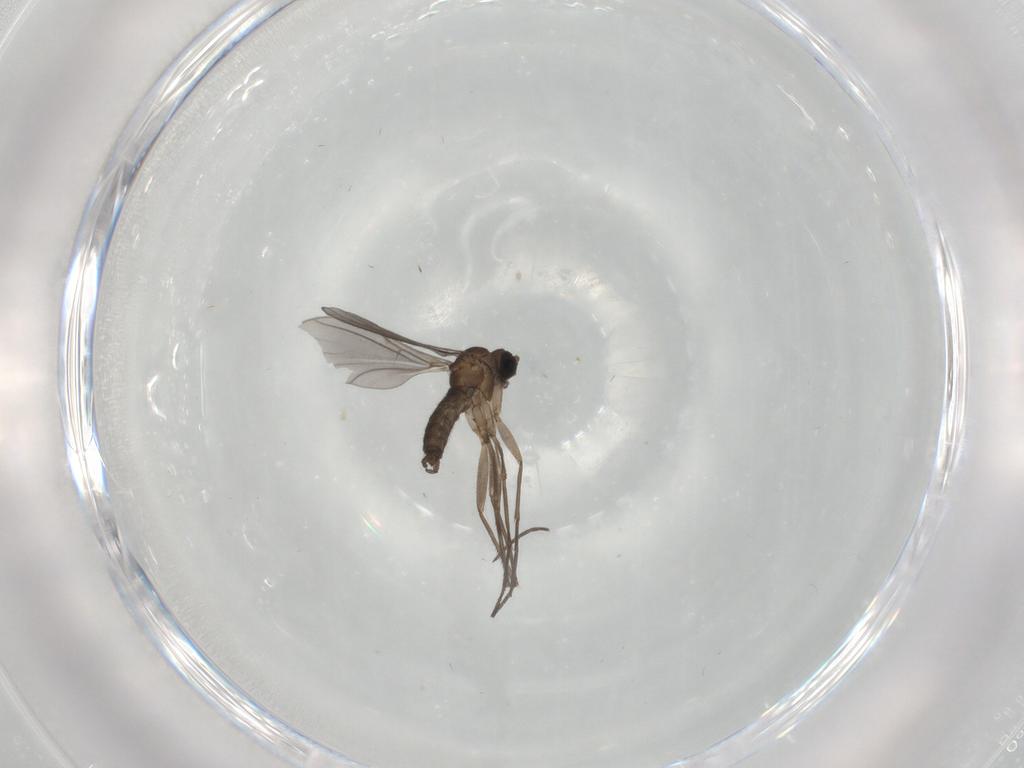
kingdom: Animalia
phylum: Arthropoda
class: Insecta
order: Diptera
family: Sciaridae
